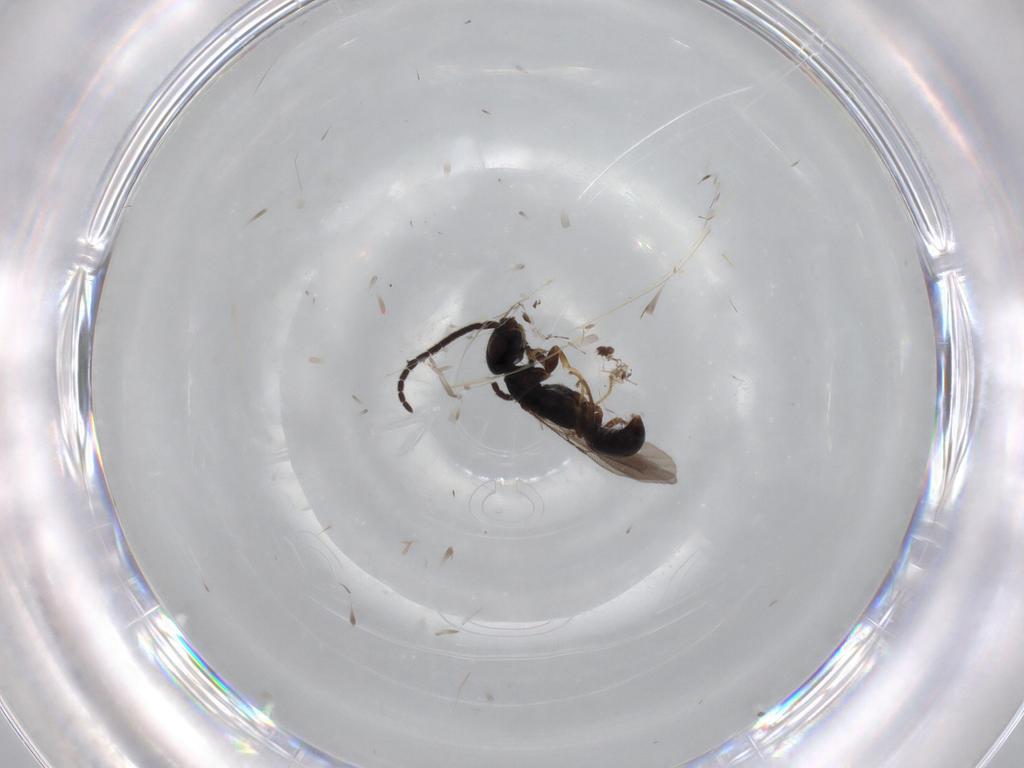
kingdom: Animalia
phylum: Arthropoda
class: Insecta
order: Hymenoptera
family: Bethylidae
